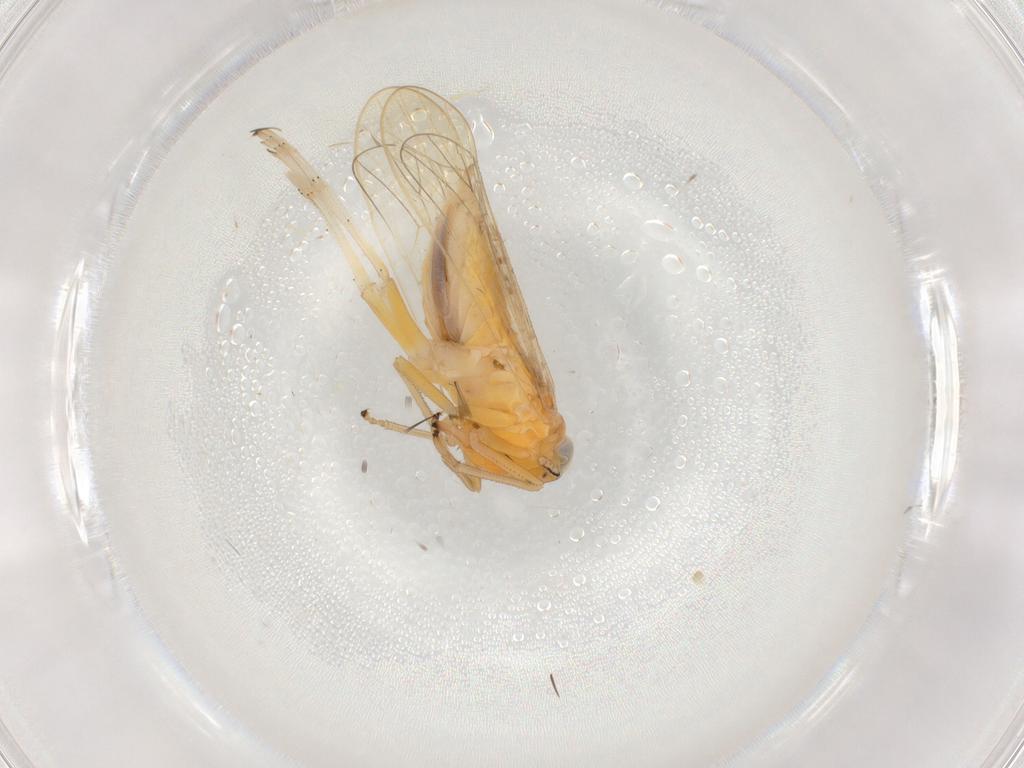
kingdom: Animalia
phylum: Arthropoda
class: Insecta
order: Hemiptera
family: Delphacidae
